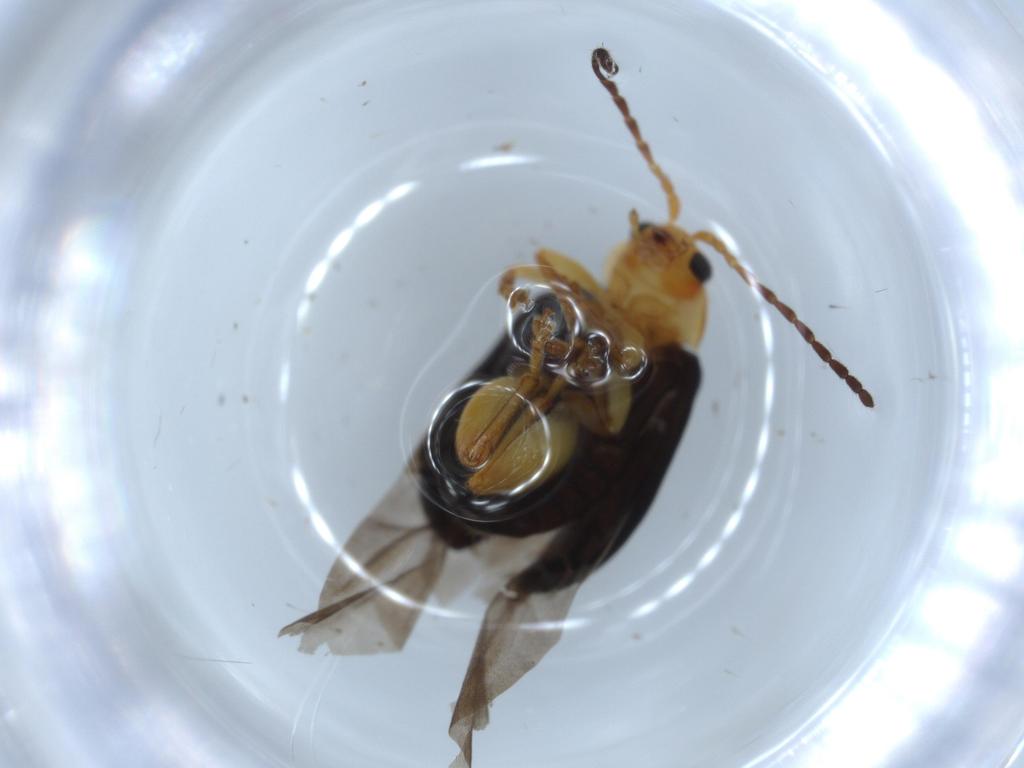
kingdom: Animalia
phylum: Arthropoda
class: Insecta
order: Coleoptera
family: Chrysomelidae
